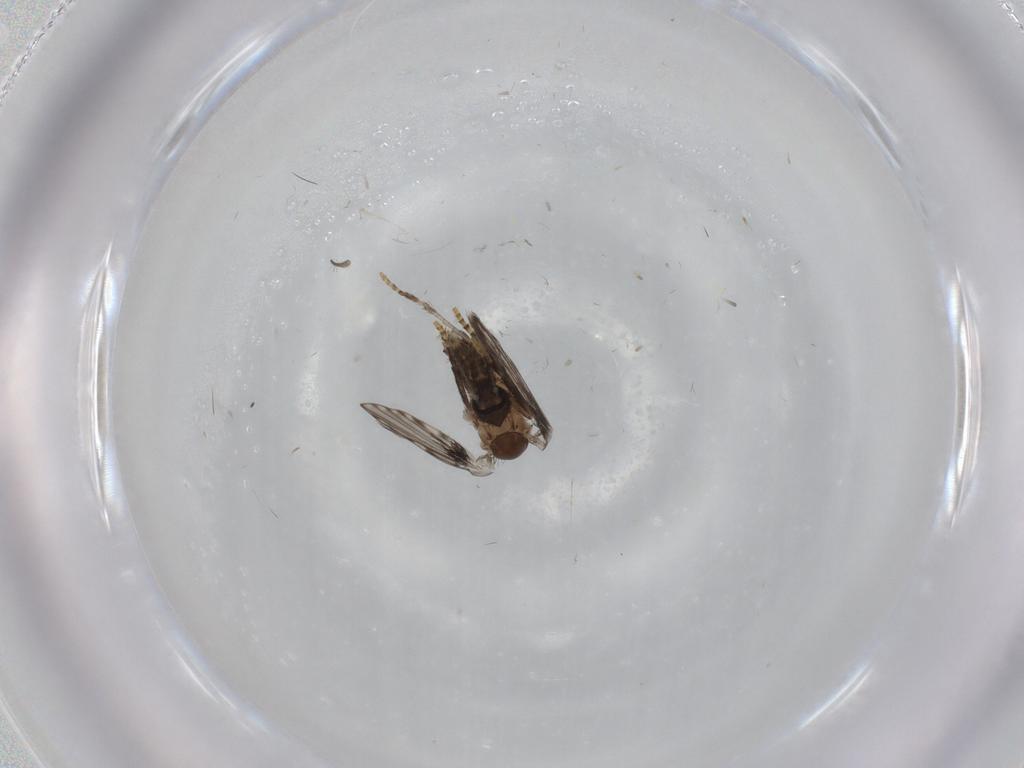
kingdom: Animalia
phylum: Arthropoda
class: Insecta
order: Diptera
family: Psychodidae
